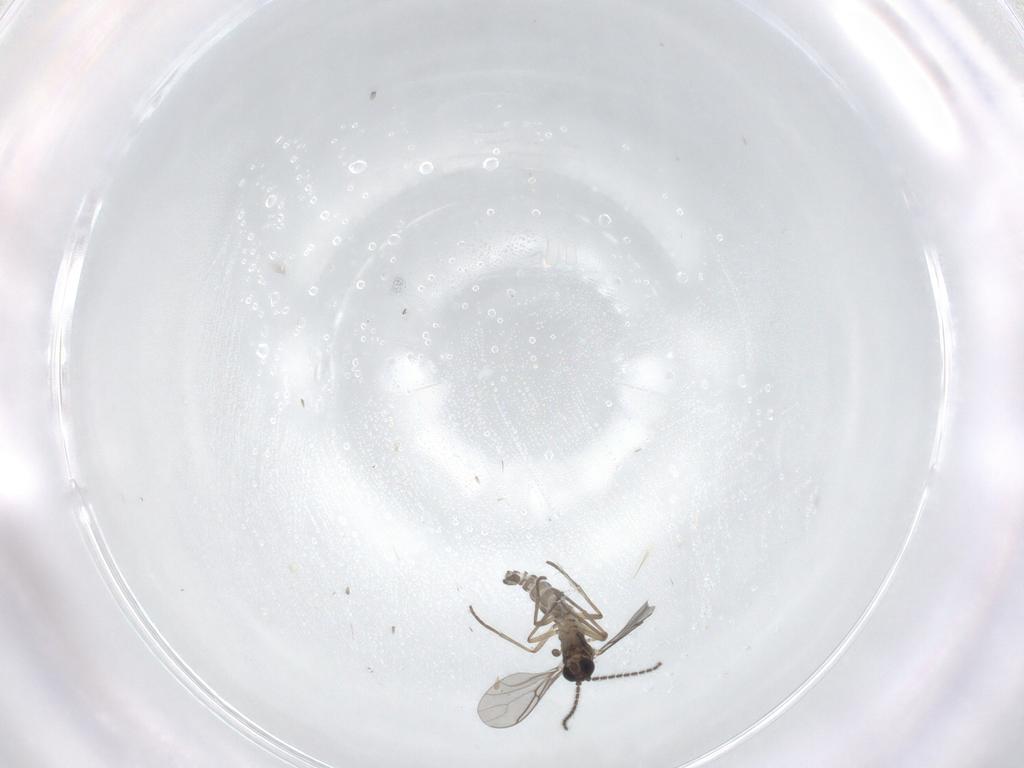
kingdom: Animalia
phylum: Arthropoda
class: Insecta
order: Diptera
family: Sciaridae
